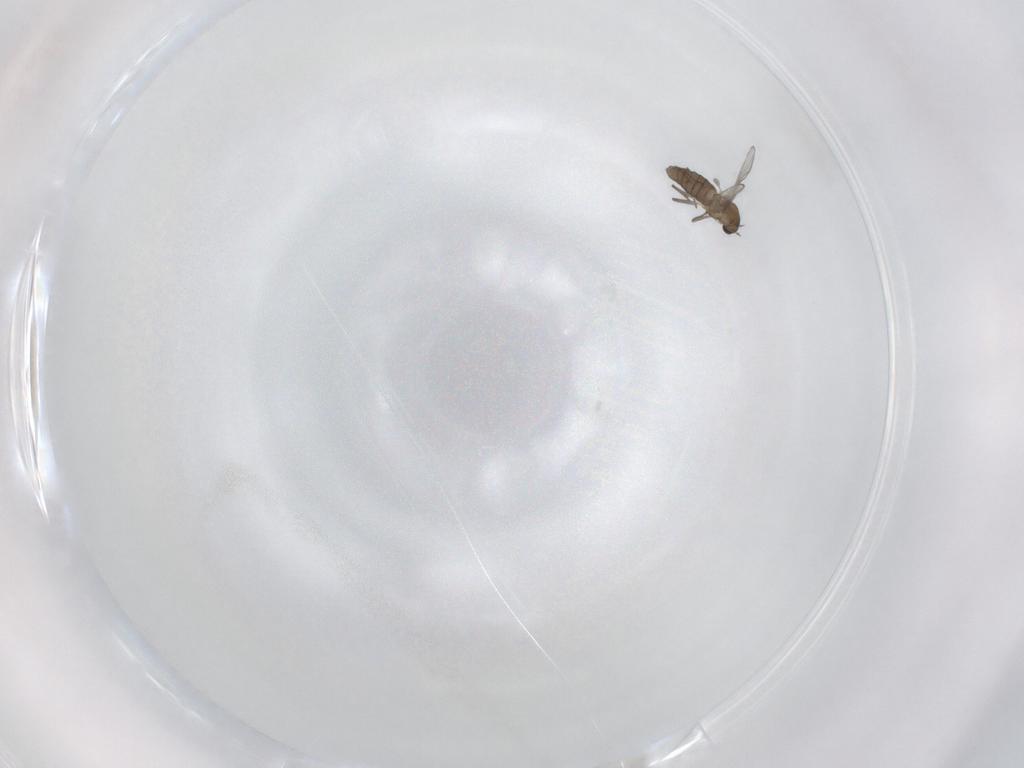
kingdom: Animalia
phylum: Arthropoda
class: Insecta
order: Diptera
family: Chironomidae
